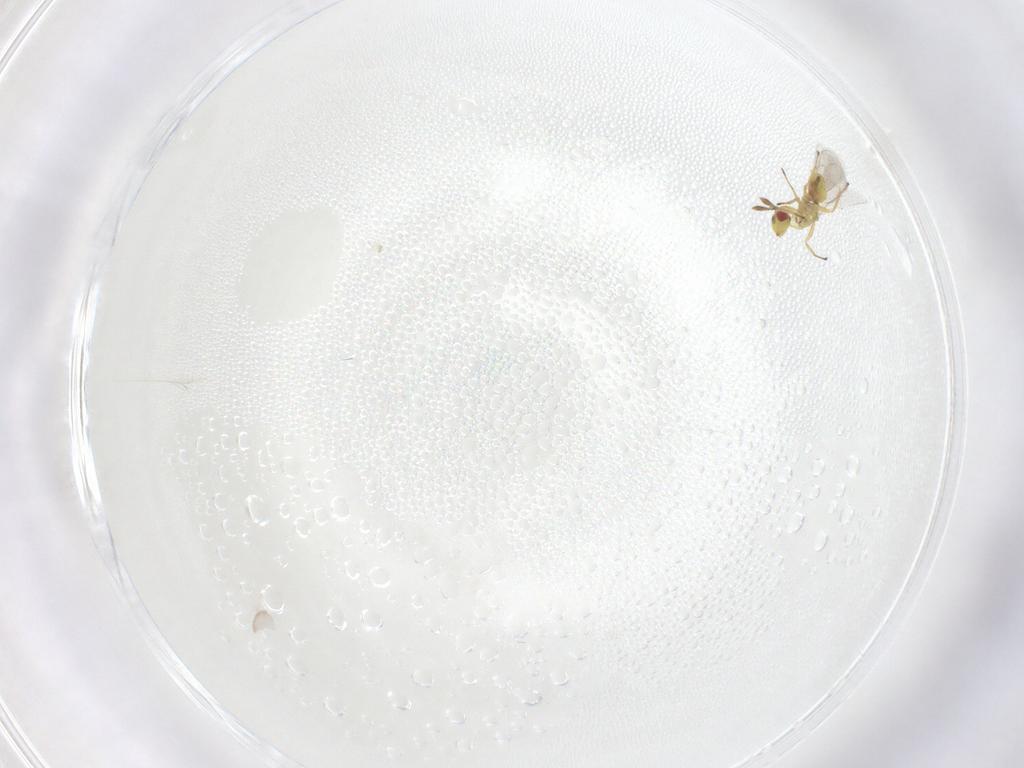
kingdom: Animalia
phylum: Arthropoda
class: Insecta
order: Hymenoptera
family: Eulophidae
